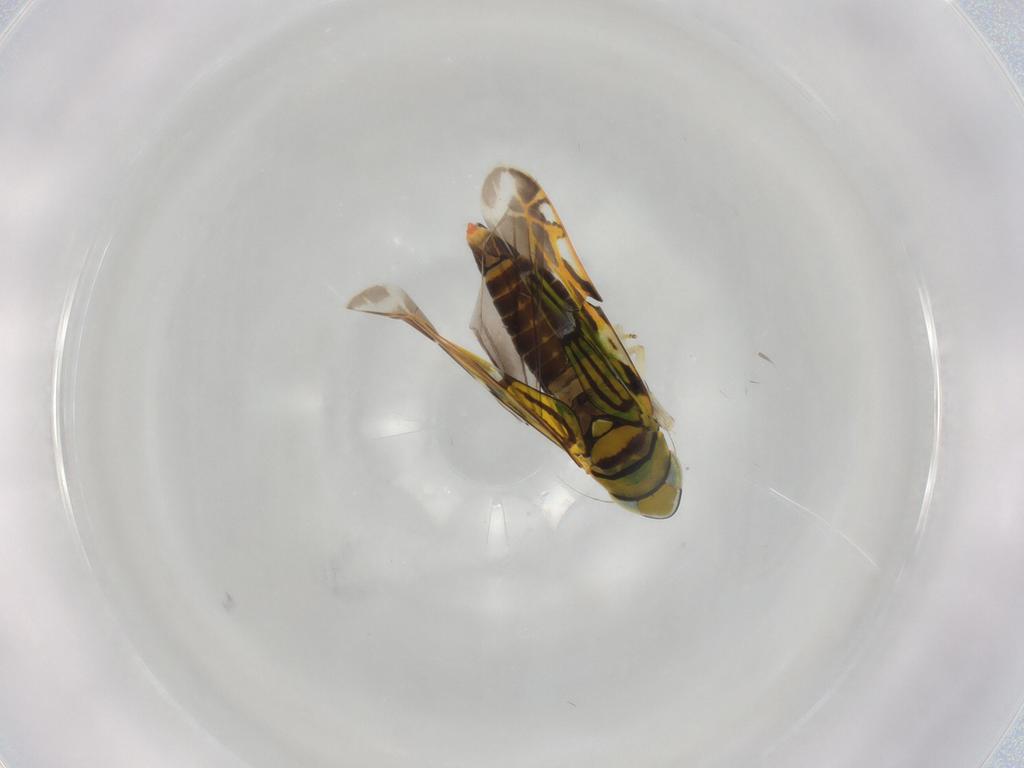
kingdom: Animalia
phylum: Arthropoda
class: Insecta
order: Hemiptera
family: Cicadellidae
